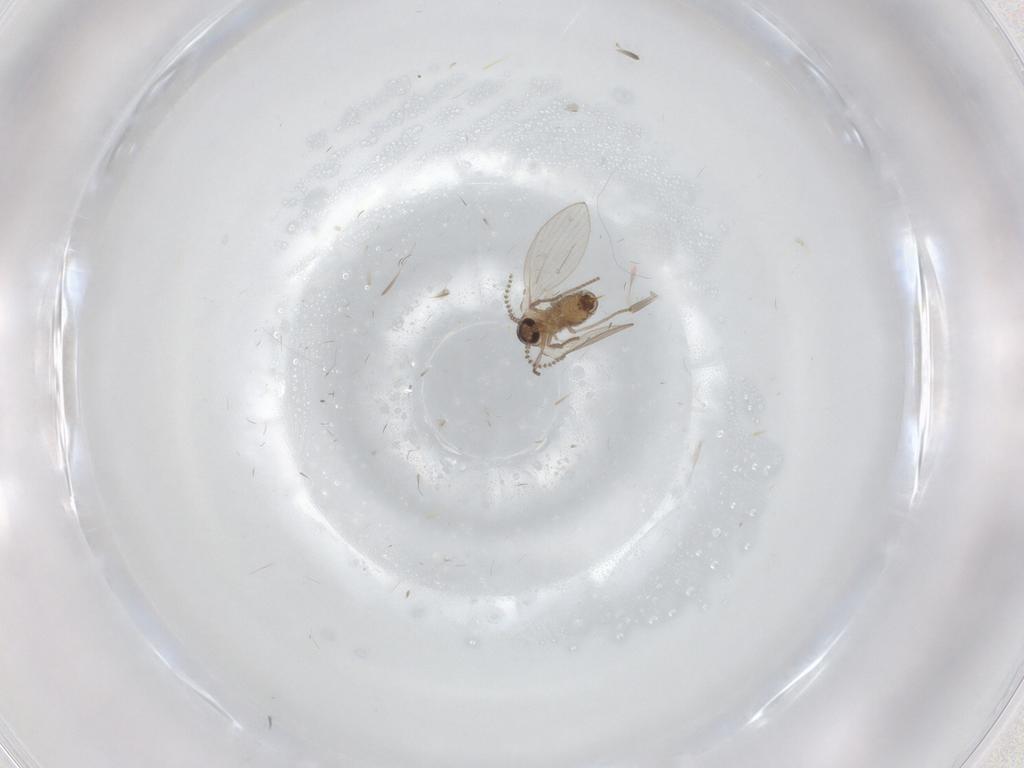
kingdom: Animalia
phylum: Arthropoda
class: Insecta
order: Diptera
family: Psychodidae
